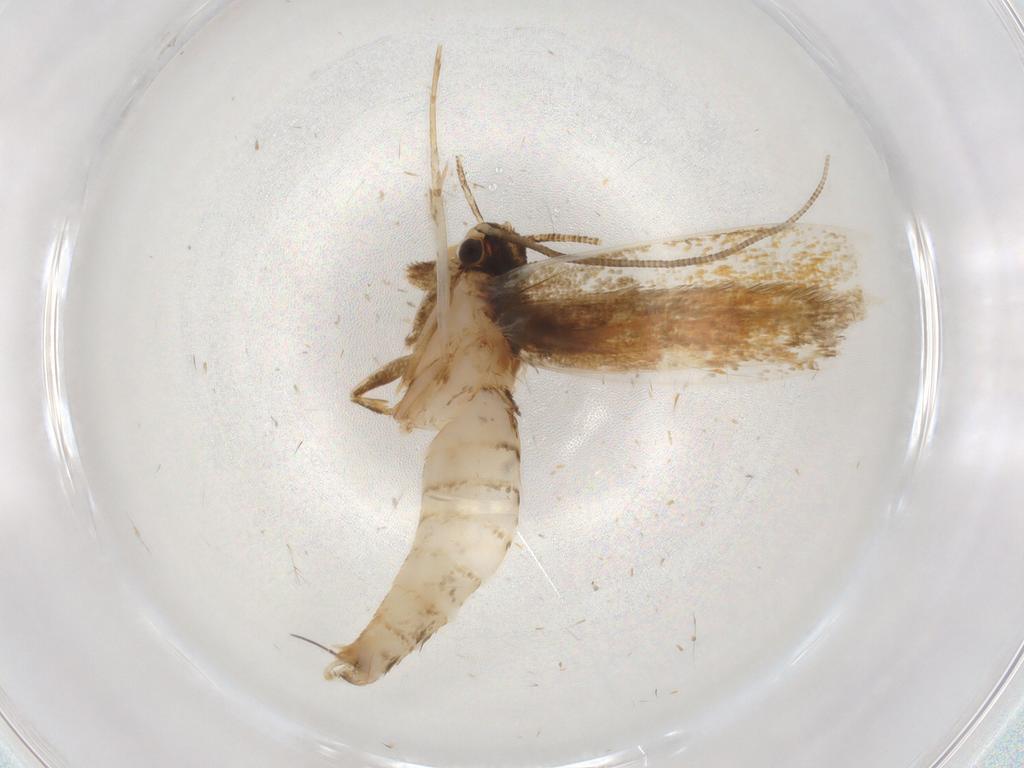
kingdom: Animalia
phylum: Arthropoda
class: Insecta
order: Lepidoptera
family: Tineidae
